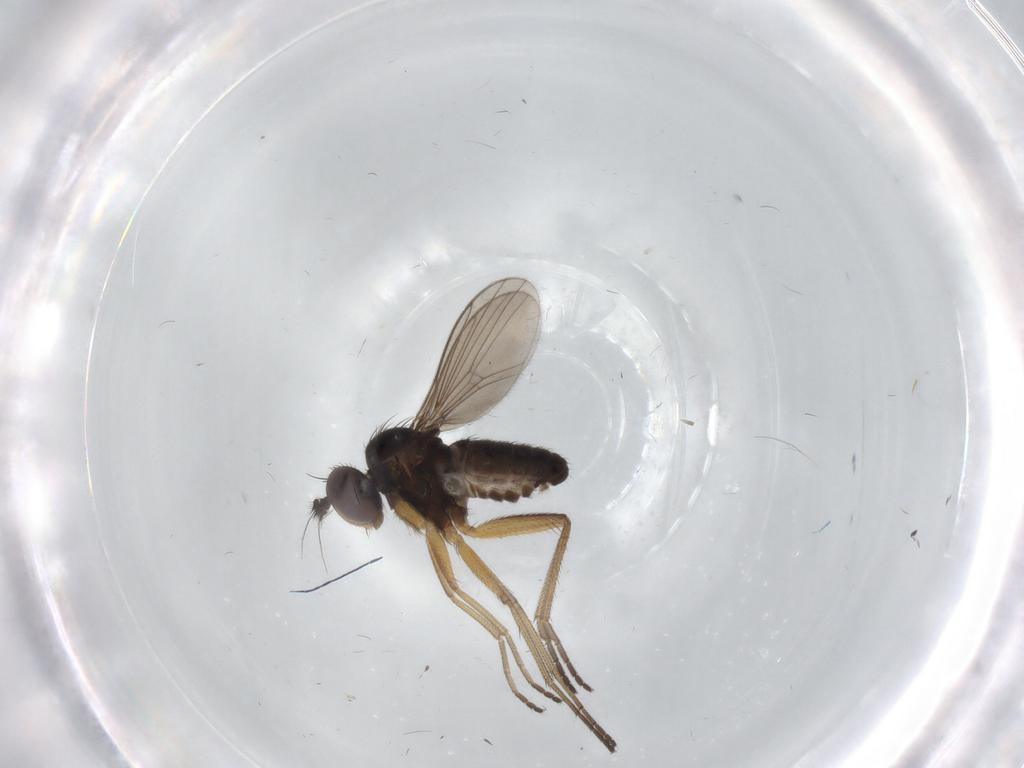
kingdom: Animalia
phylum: Arthropoda
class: Insecta
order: Diptera
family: Dolichopodidae
